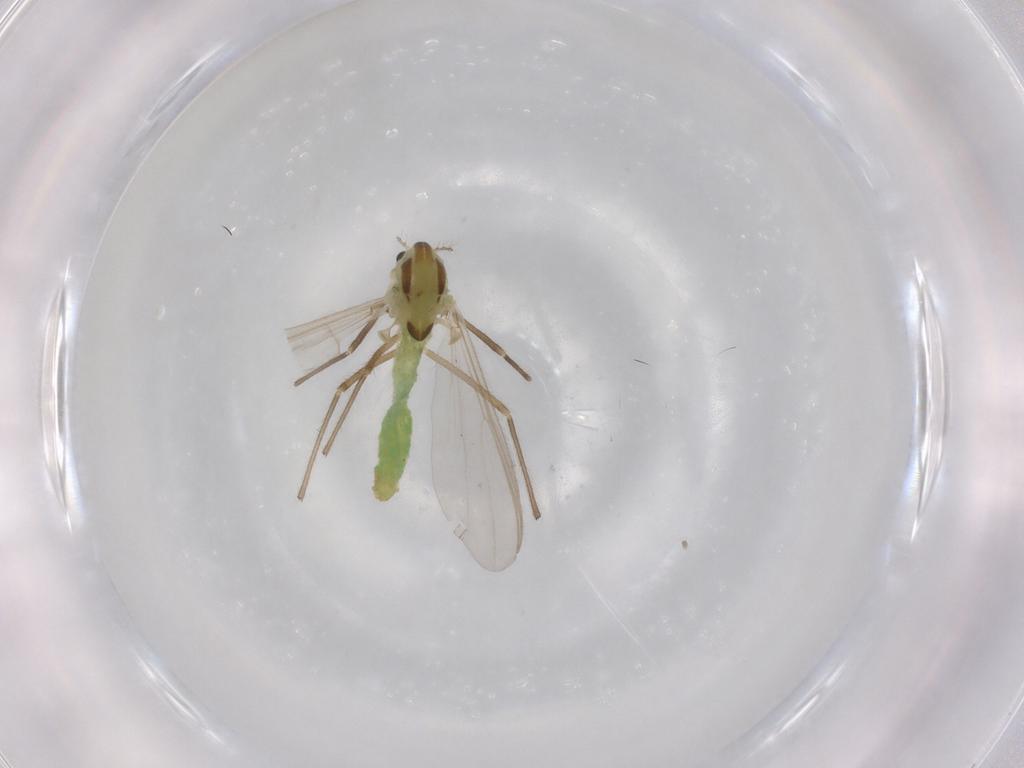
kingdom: Animalia
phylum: Arthropoda
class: Insecta
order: Diptera
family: Chironomidae
